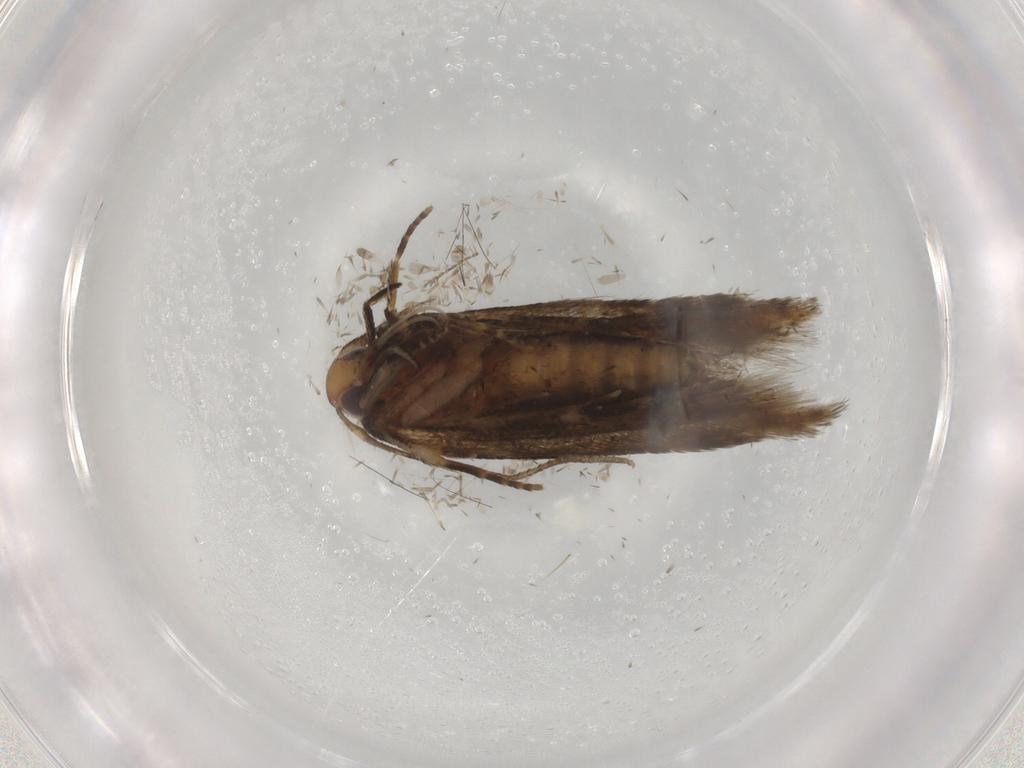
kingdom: Animalia
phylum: Arthropoda
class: Insecta
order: Lepidoptera
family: Cosmopterigidae
